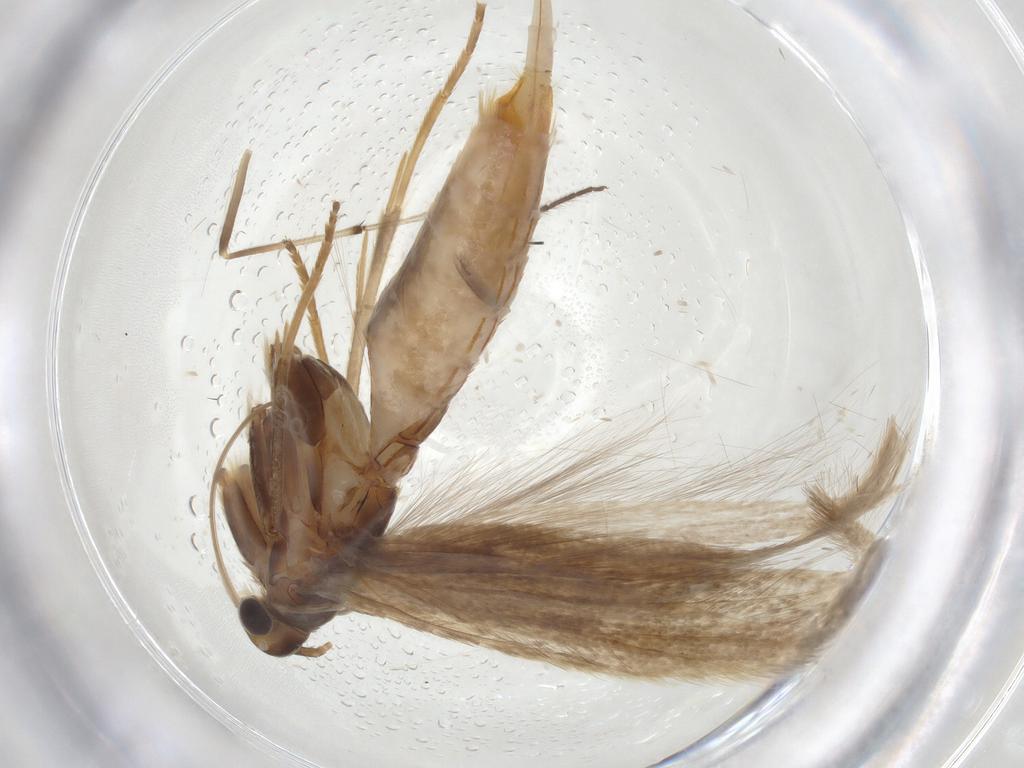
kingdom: Animalia
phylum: Arthropoda
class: Insecta
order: Lepidoptera
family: Coleophoridae
